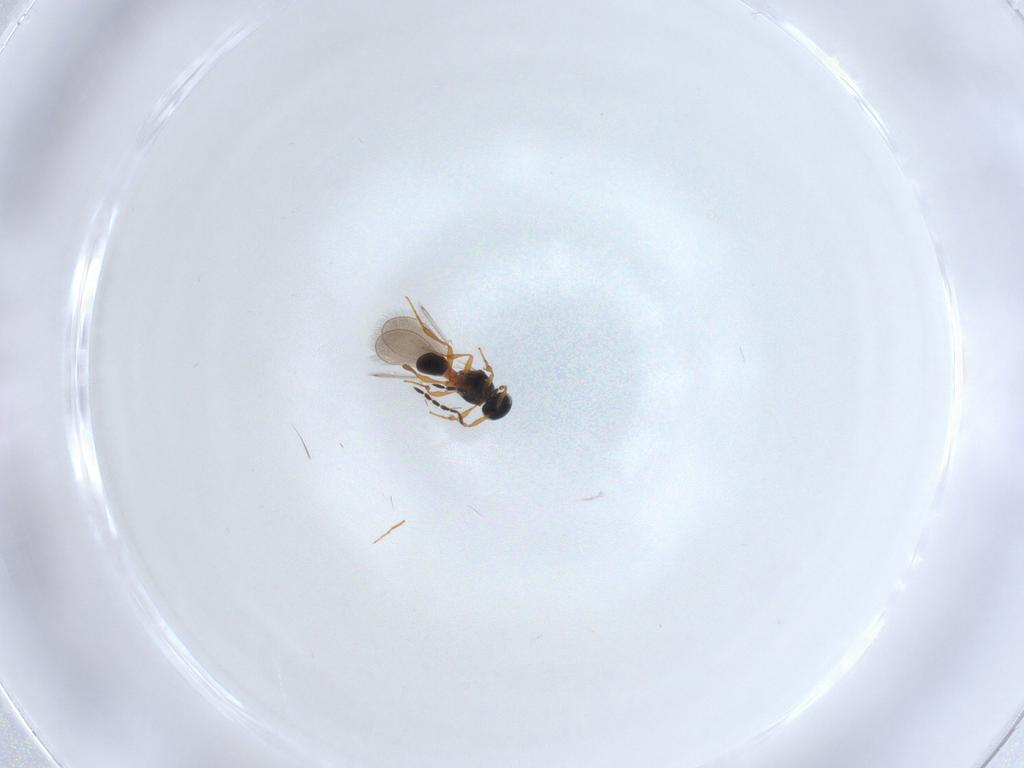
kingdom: Animalia
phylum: Arthropoda
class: Insecta
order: Hymenoptera
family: Platygastridae
